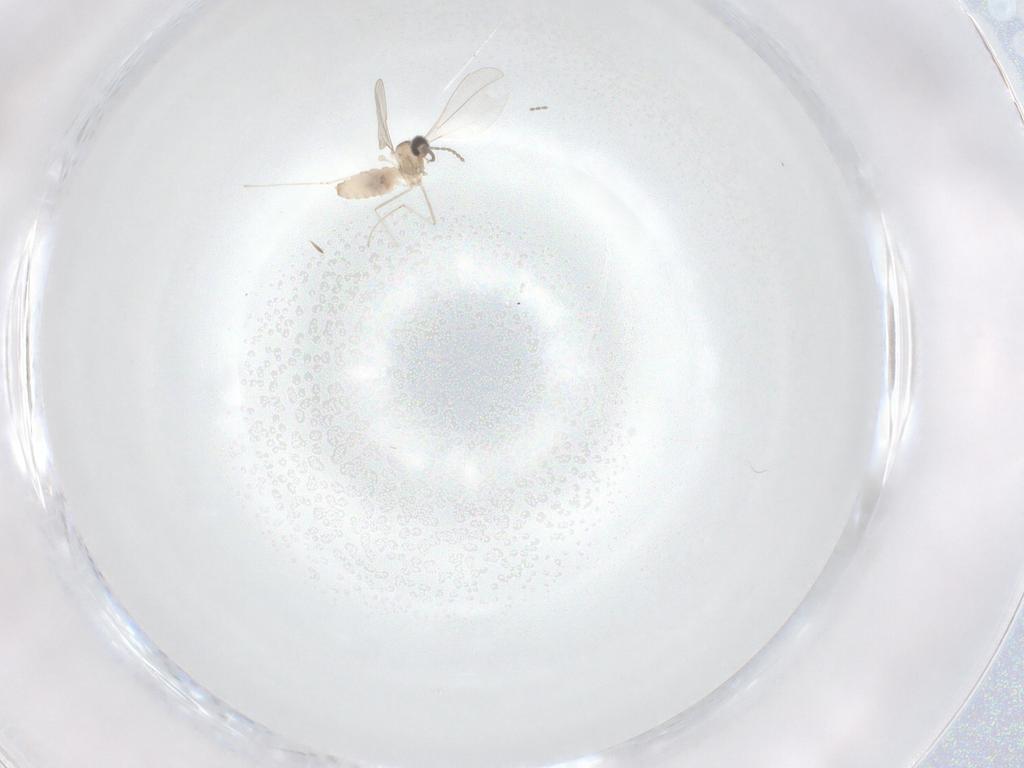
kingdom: Animalia
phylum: Arthropoda
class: Insecta
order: Diptera
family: Cecidomyiidae
